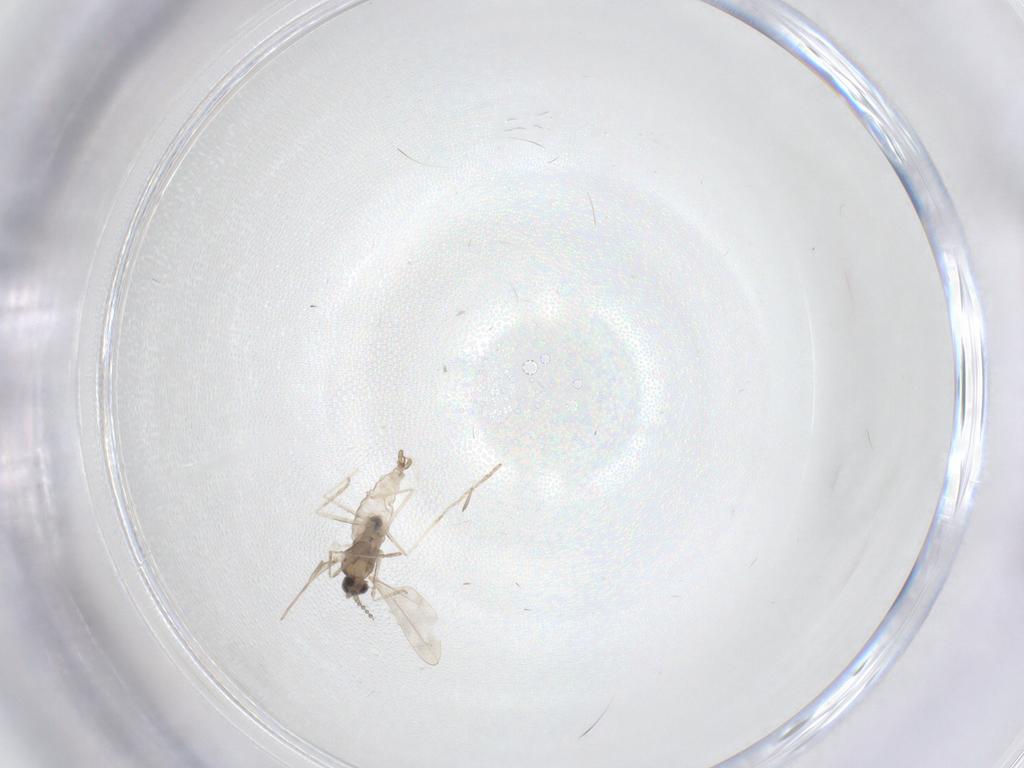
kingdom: Animalia
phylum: Arthropoda
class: Insecta
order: Diptera
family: Cecidomyiidae
